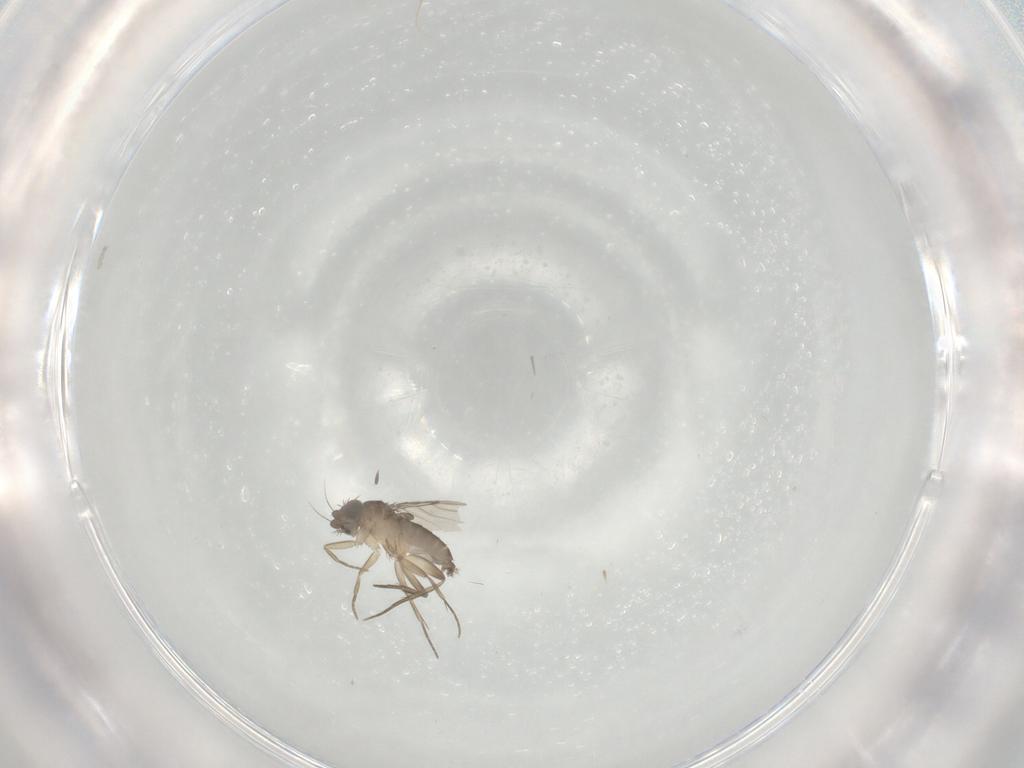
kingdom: Animalia
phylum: Arthropoda
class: Insecta
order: Diptera
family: Phoridae
